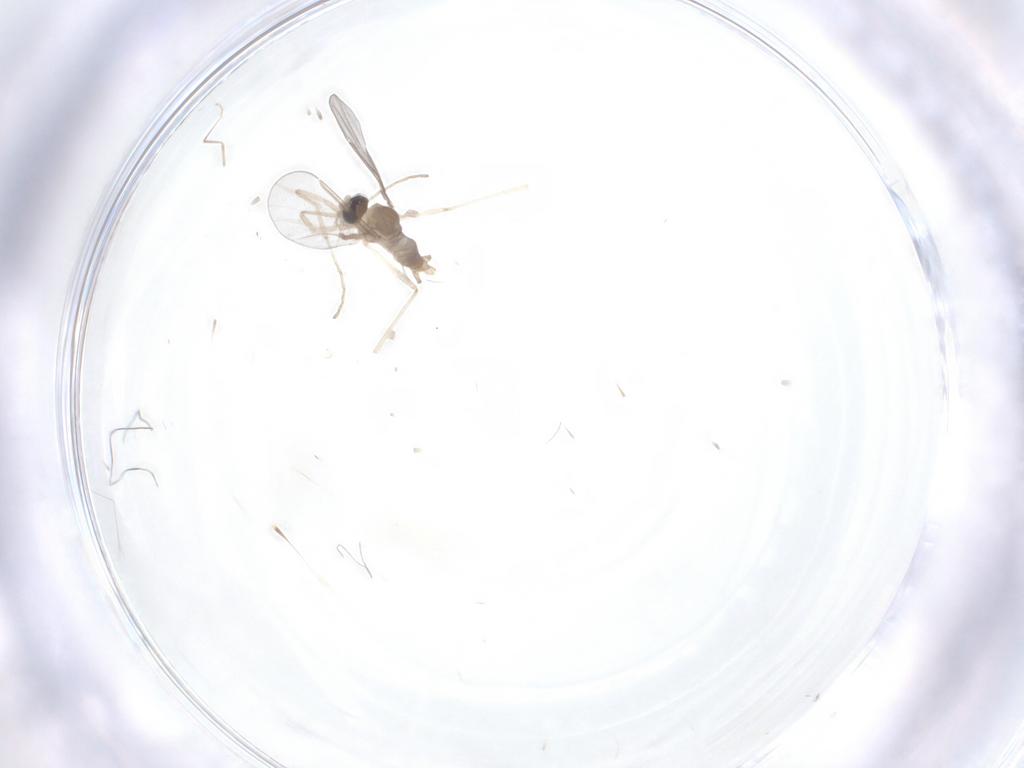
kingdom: Animalia
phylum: Arthropoda
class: Insecta
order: Diptera
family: Cecidomyiidae
